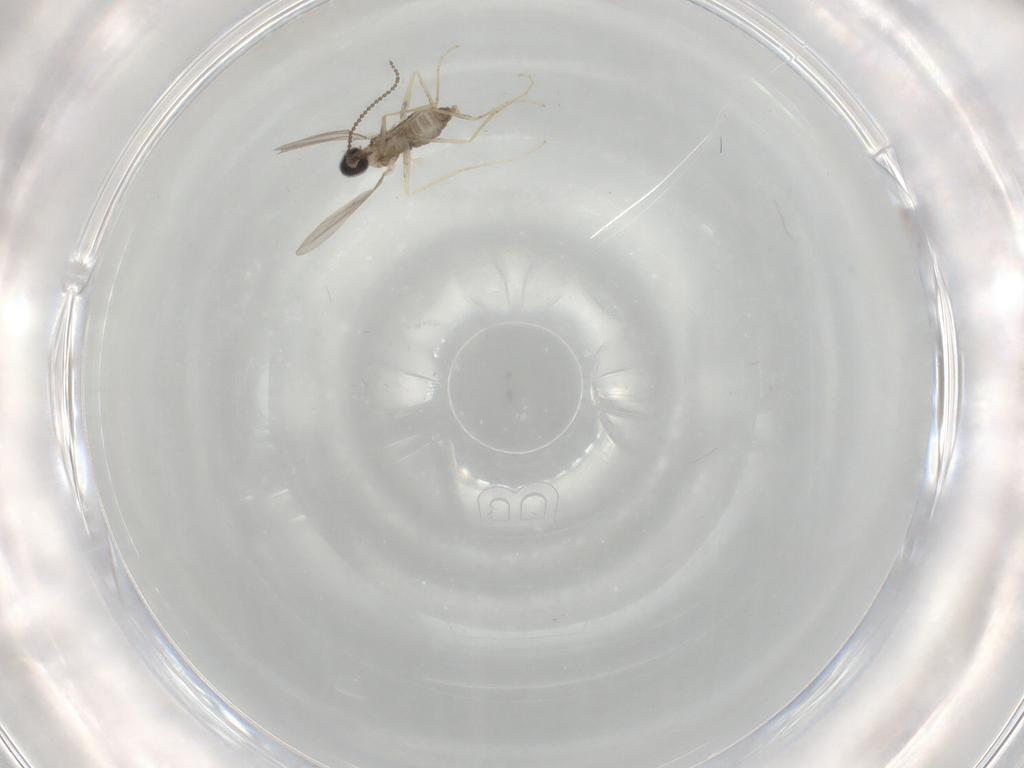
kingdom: Animalia
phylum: Arthropoda
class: Insecta
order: Diptera
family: Cecidomyiidae
